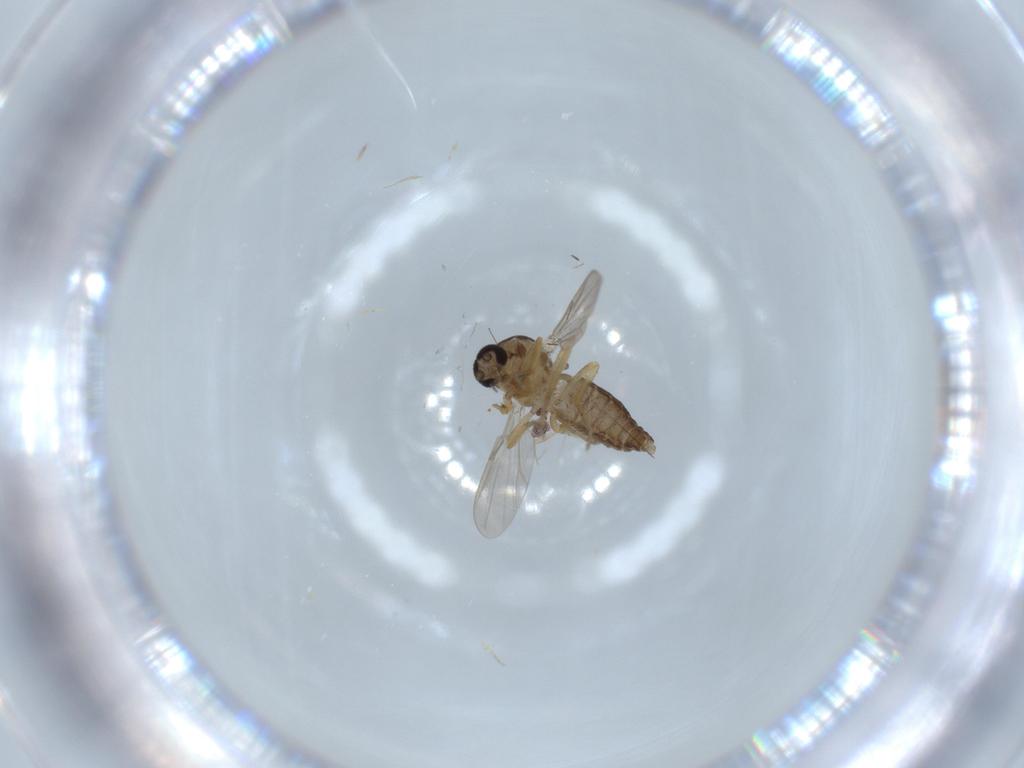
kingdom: Animalia
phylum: Arthropoda
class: Insecta
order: Diptera
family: Ceratopogonidae
